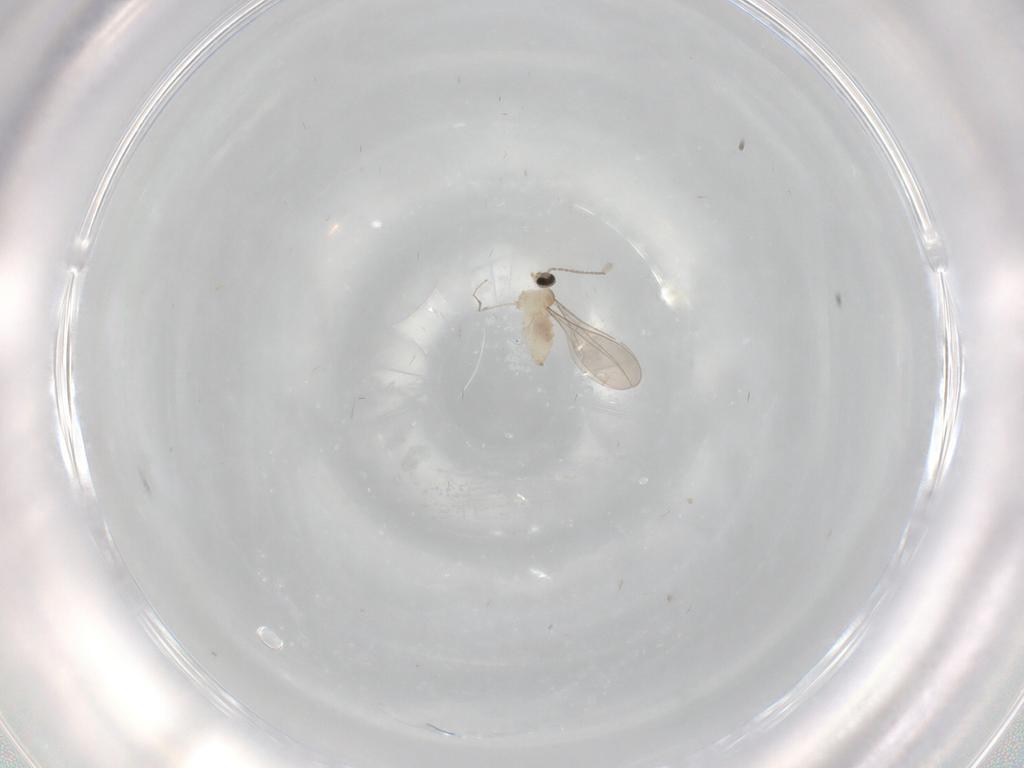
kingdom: Animalia
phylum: Arthropoda
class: Insecta
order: Diptera
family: Cecidomyiidae
